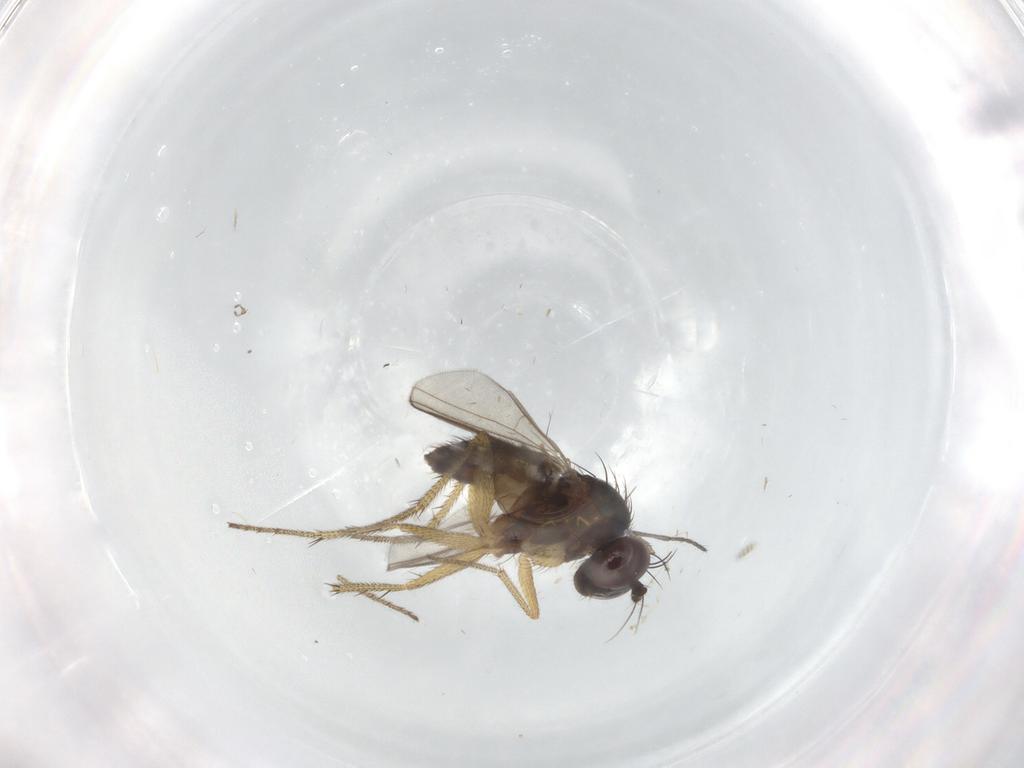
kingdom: Animalia
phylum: Arthropoda
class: Insecta
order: Diptera
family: Dolichopodidae
